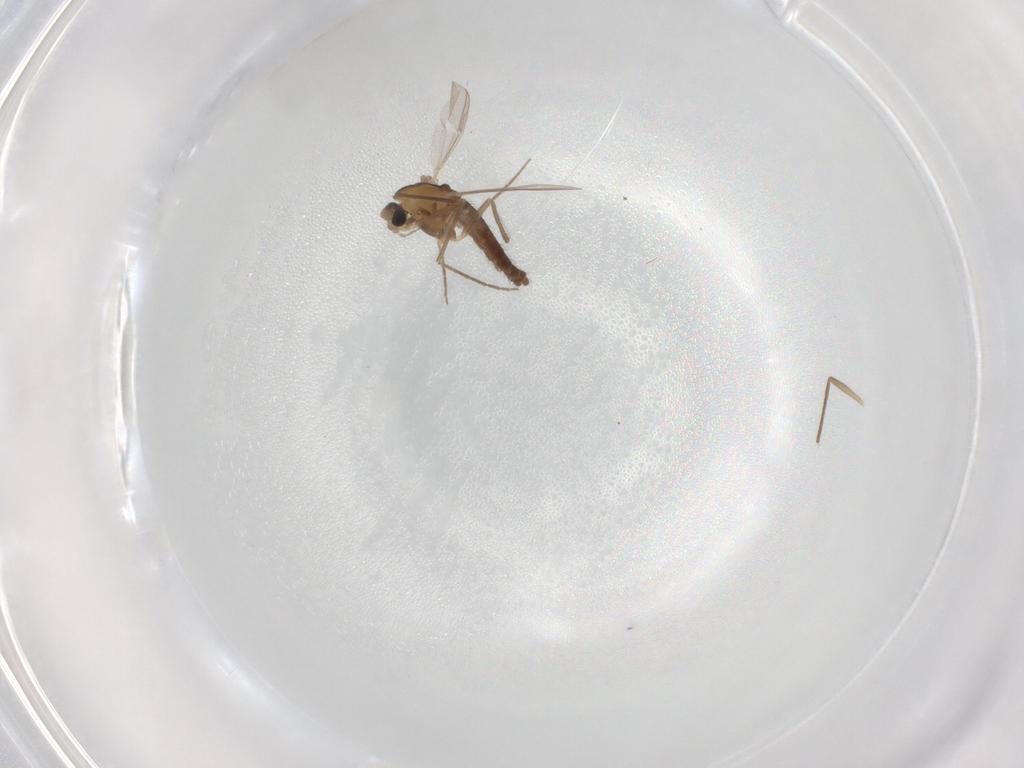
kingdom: Animalia
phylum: Arthropoda
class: Insecta
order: Diptera
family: Chironomidae
